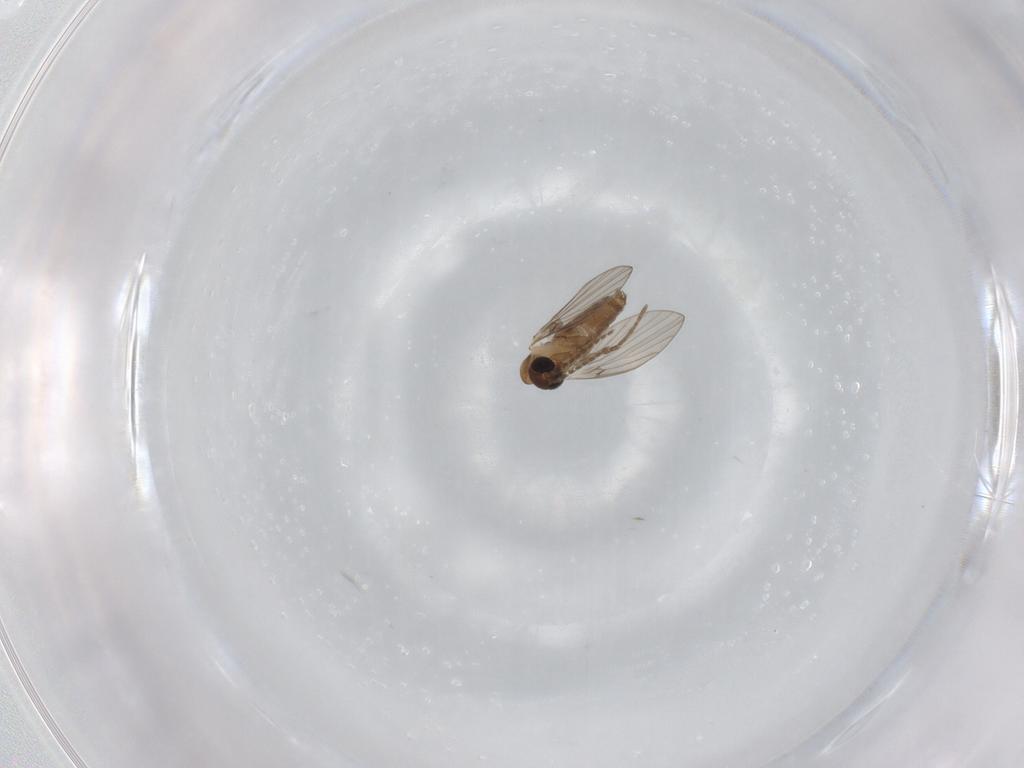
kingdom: Animalia
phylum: Arthropoda
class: Insecta
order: Diptera
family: Psychodidae
